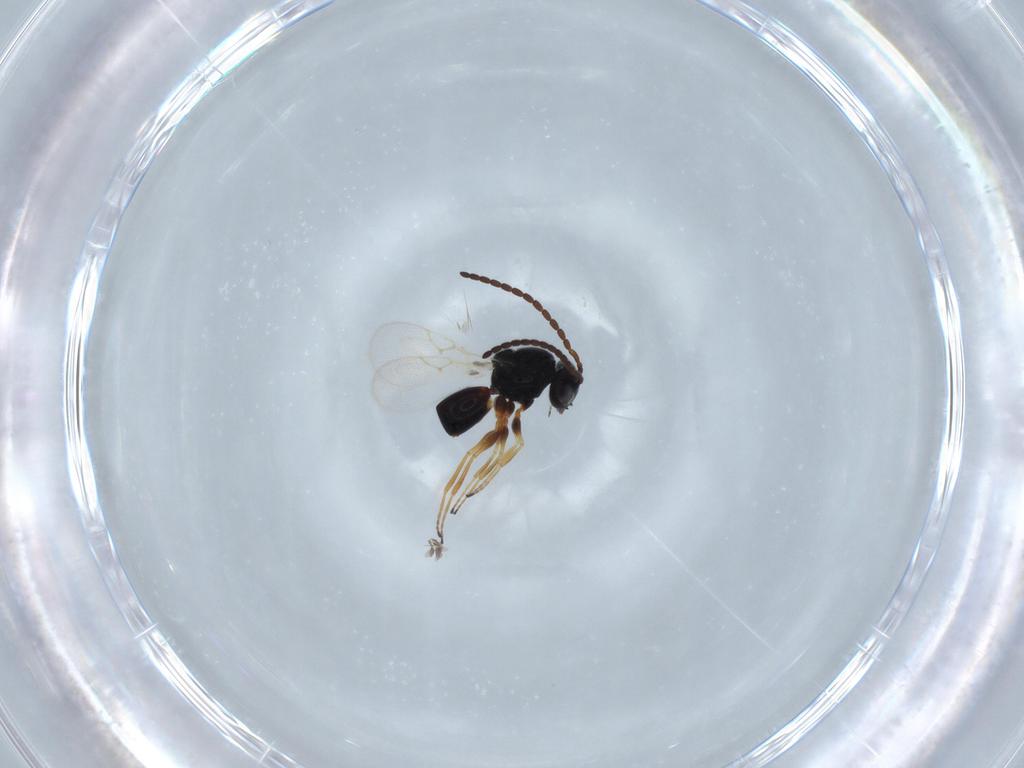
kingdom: Animalia
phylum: Arthropoda
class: Insecta
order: Hymenoptera
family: Figitidae
